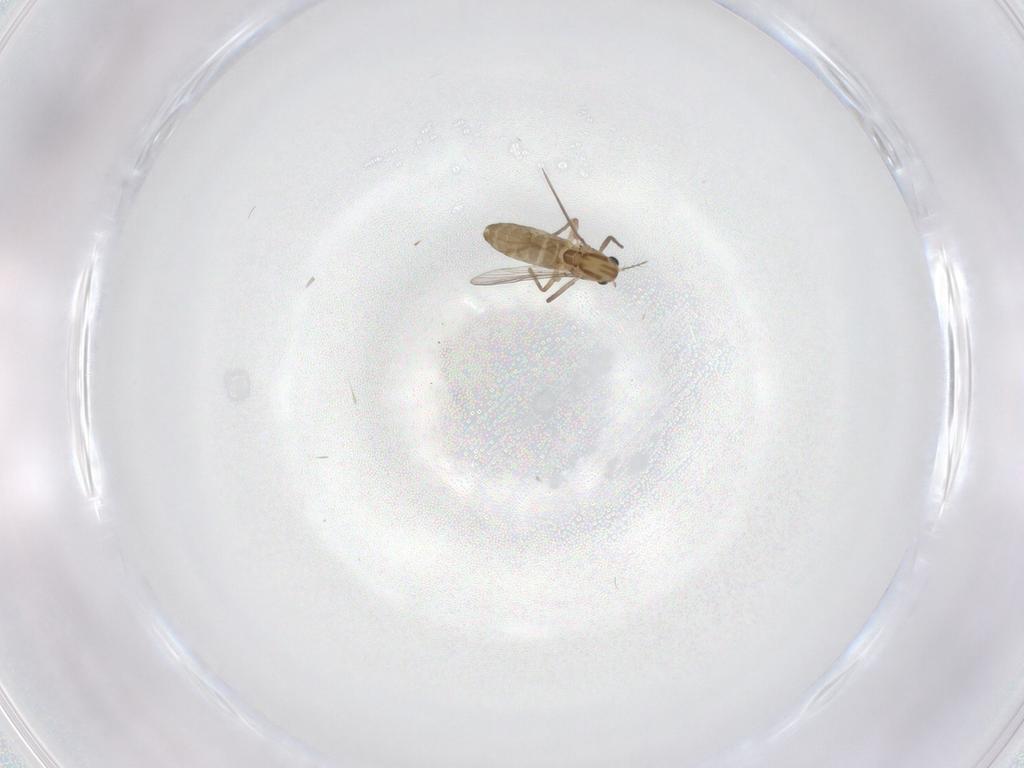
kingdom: Animalia
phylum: Arthropoda
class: Insecta
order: Diptera
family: Chironomidae
